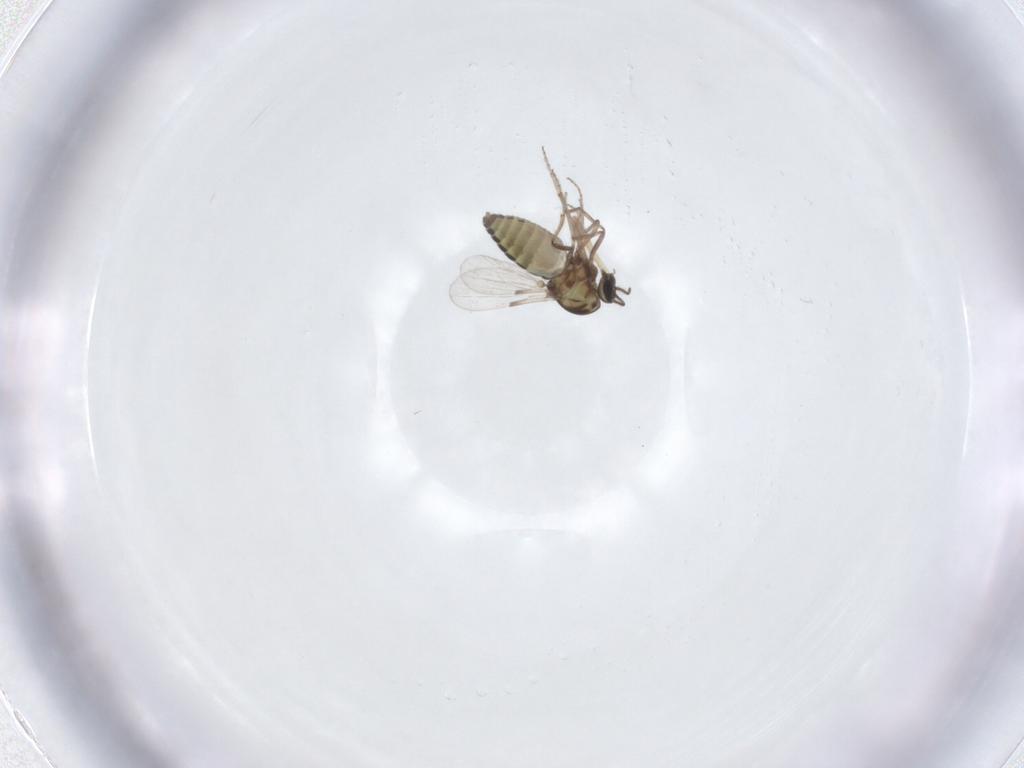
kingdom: Animalia
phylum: Arthropoda
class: Insecta
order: Diptera
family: Ceratopogonidae
